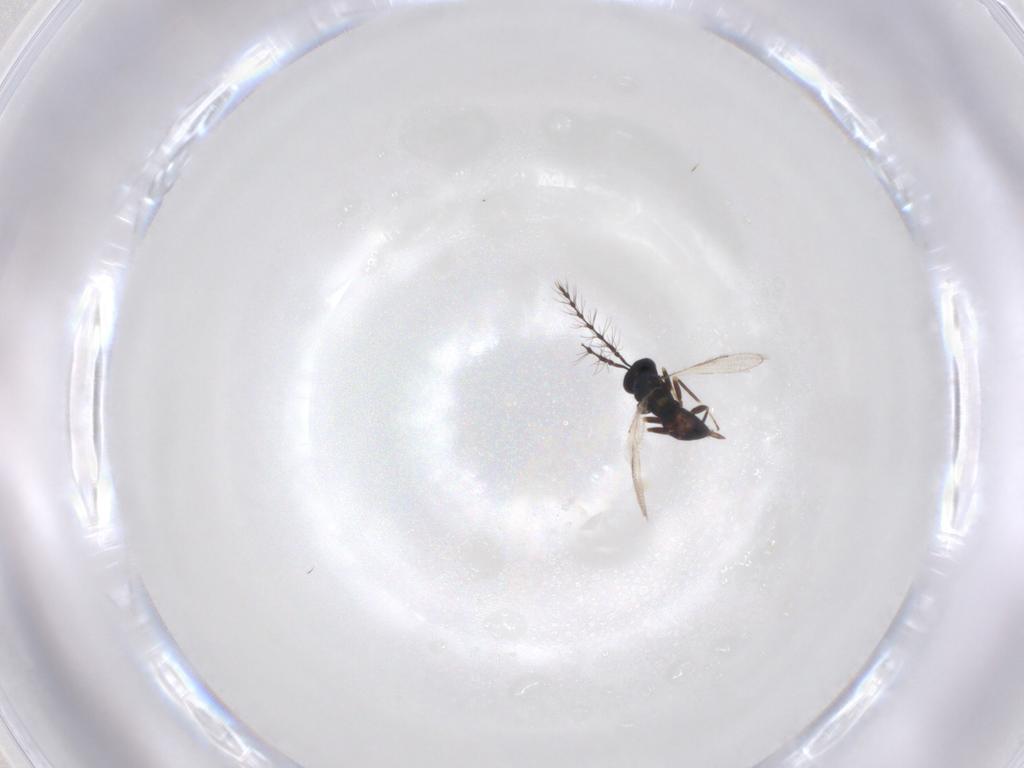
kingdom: Animalia
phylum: Arthropoda
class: Insecta
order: Hymenoptera
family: Eulophidae
